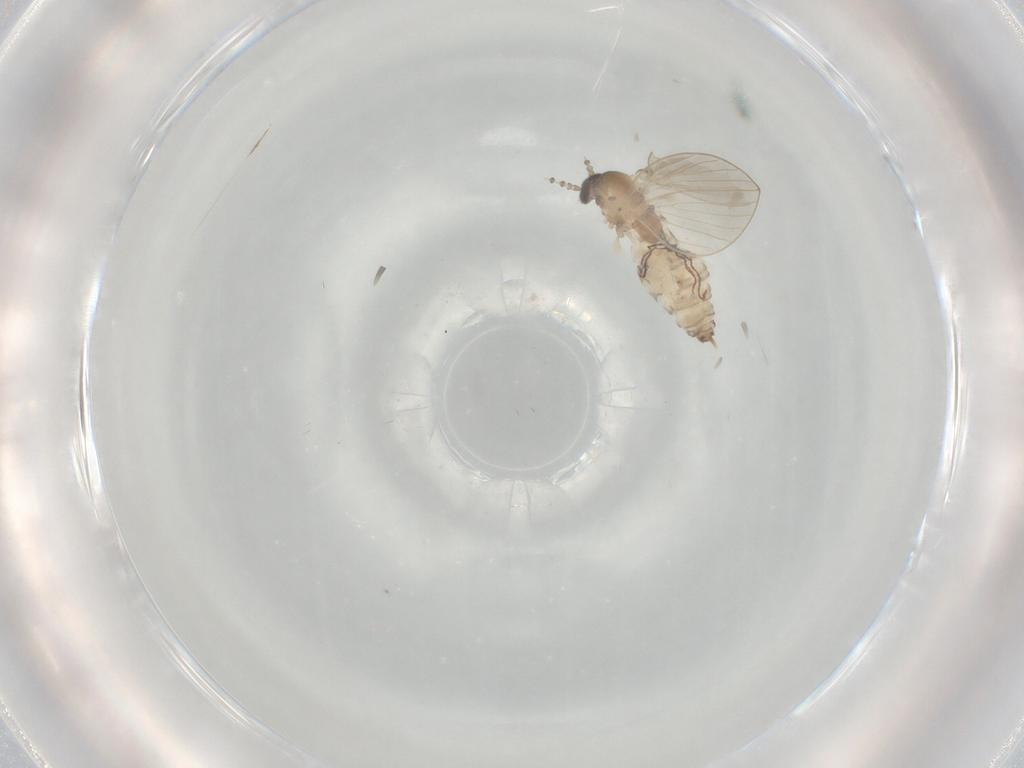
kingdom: Animalia
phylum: Arthropoda
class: Insecta
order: Diptera
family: Psychodidae
